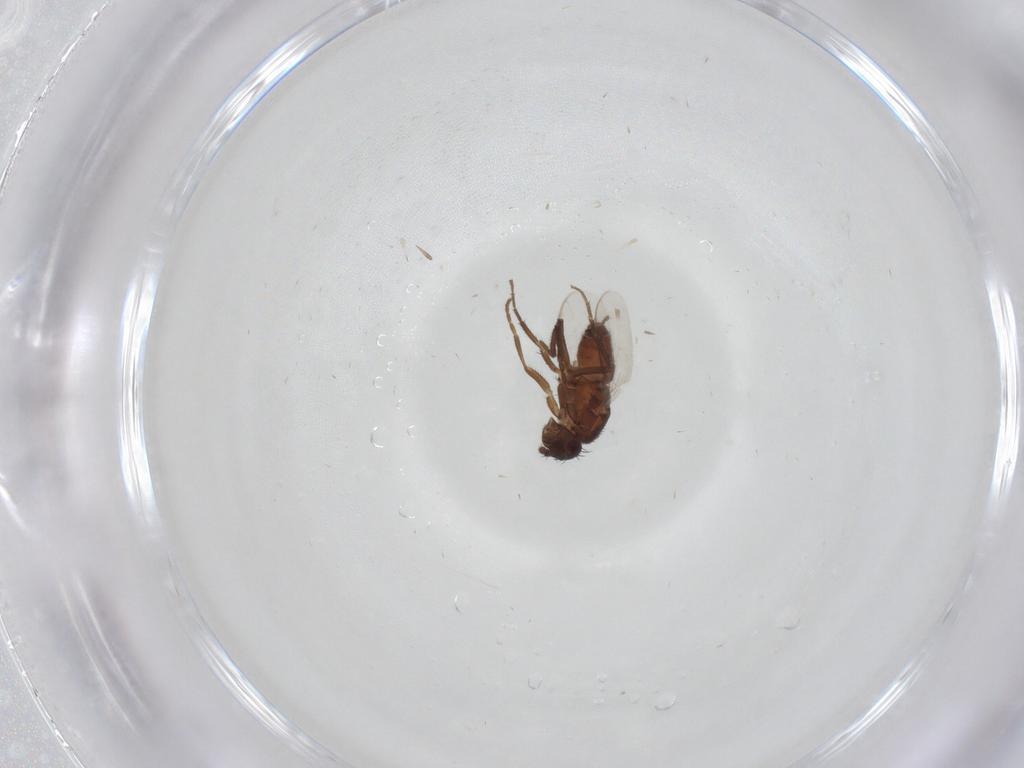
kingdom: Animalia
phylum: Arthropoda
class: Insecta
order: Diptera
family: Sphaeroceridae
